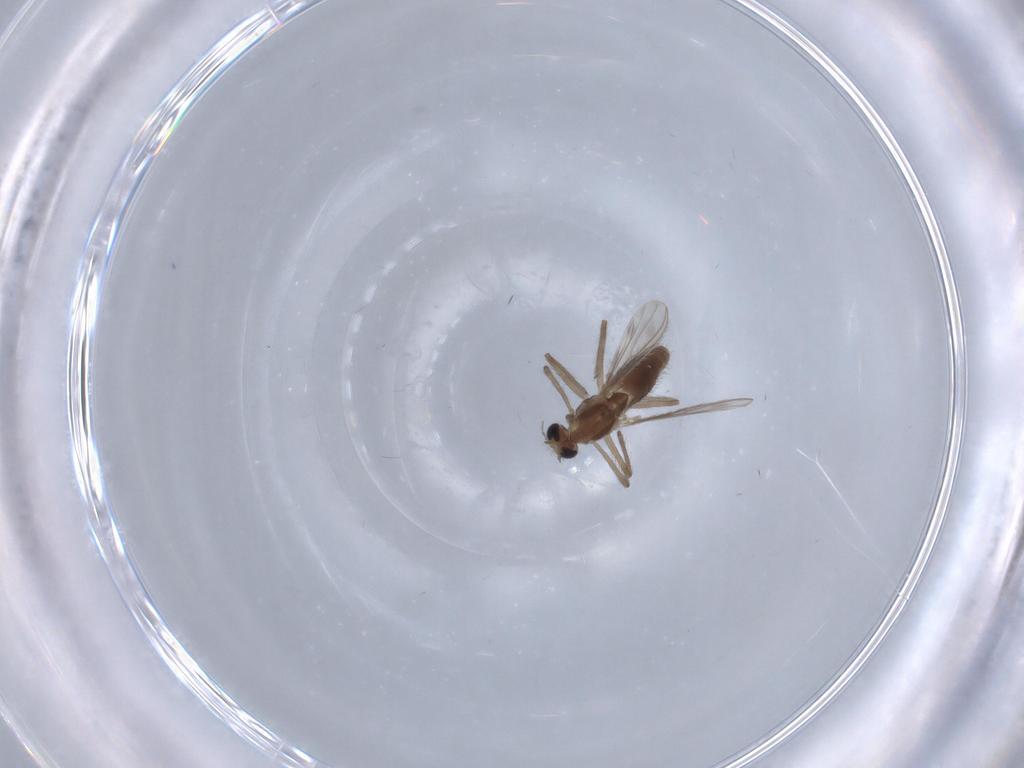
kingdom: Animalia
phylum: Arthropoda
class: Insecta
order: Diptera
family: Chironomidae
